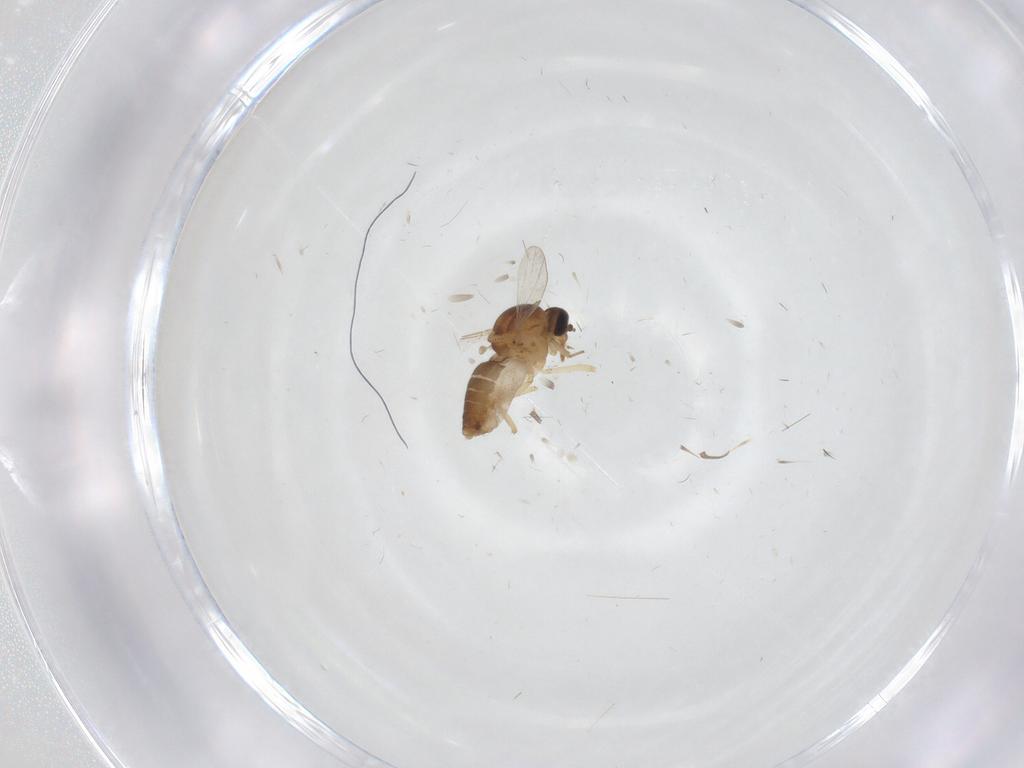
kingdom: Animalia
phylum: Arthropoda
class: Insecta
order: Diptera
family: Ceratopogonidae
